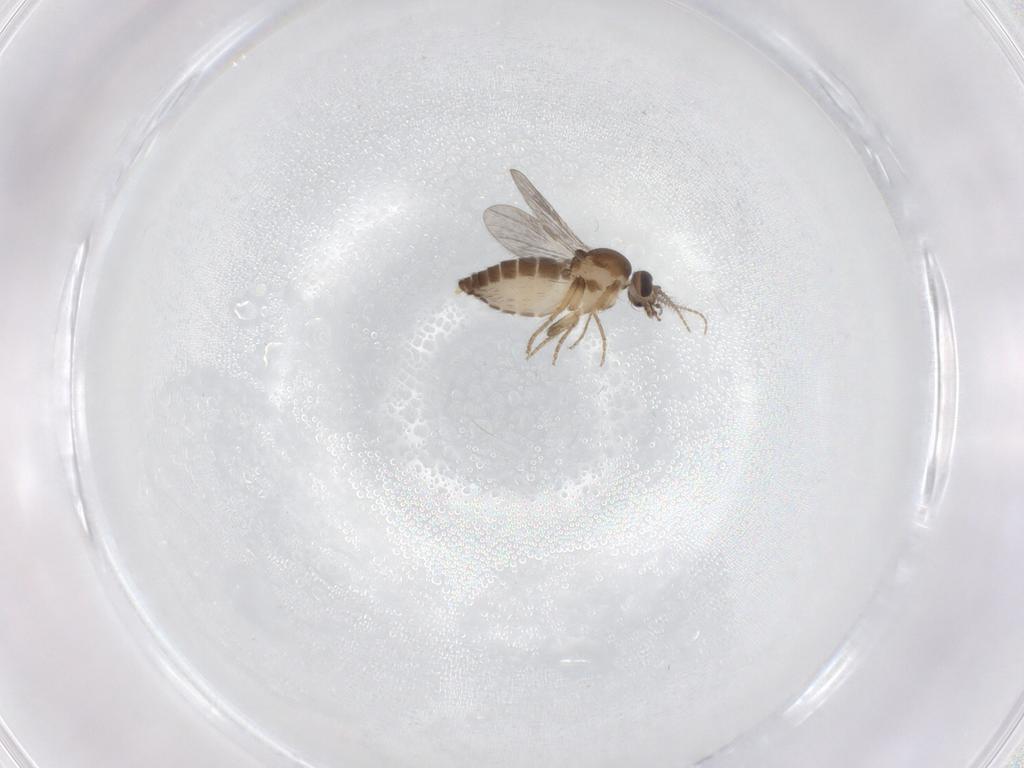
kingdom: Animalia
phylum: Arthropoda
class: Insecta
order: Diptera
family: Ceratopogonidae
